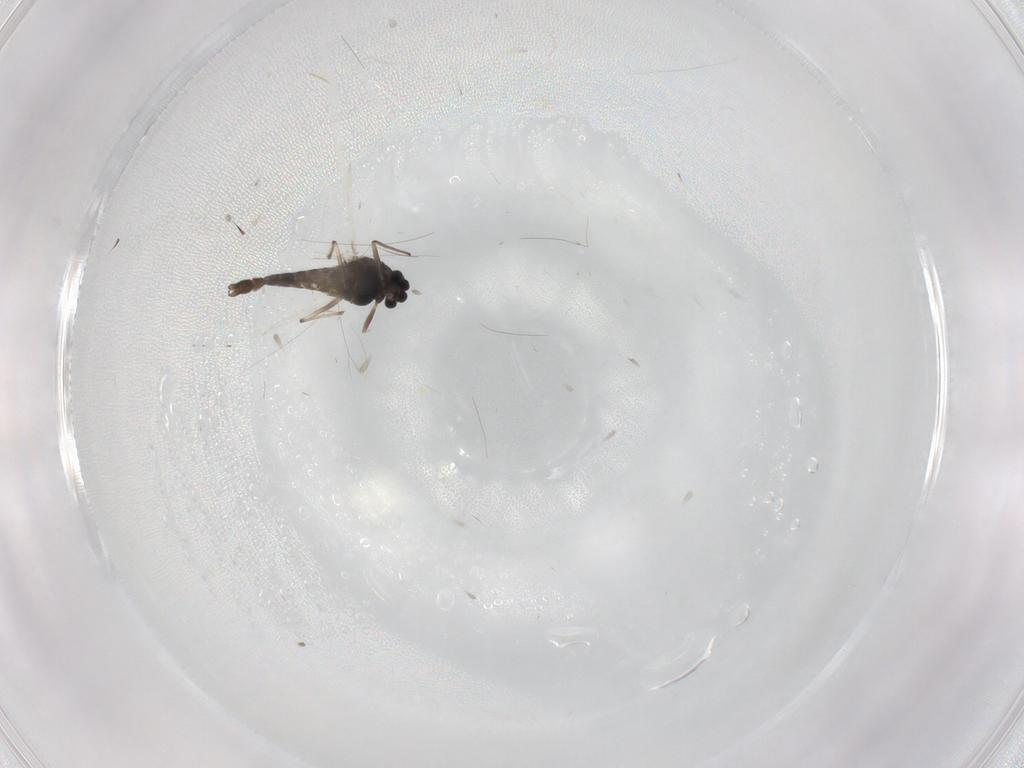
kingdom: Animalia
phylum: Arthropoda
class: Insecta
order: Diptera
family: Chironomidae
